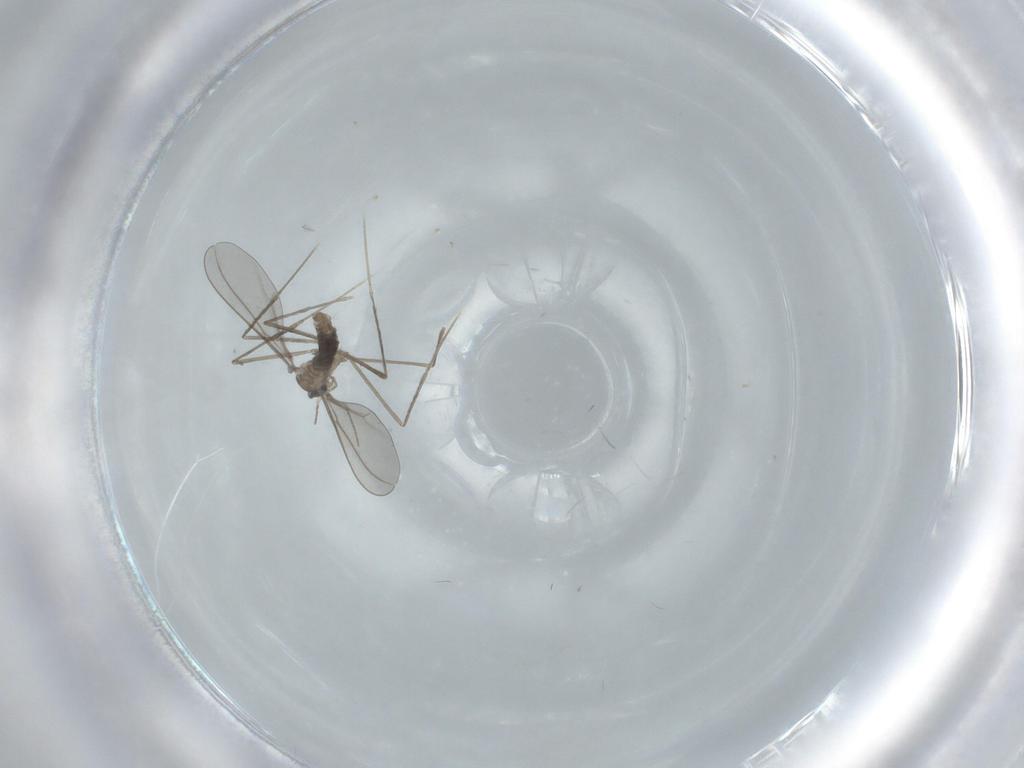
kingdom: Animalia
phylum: Arthropoda
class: Insecta
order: Diptera
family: Cecidomyiidae
